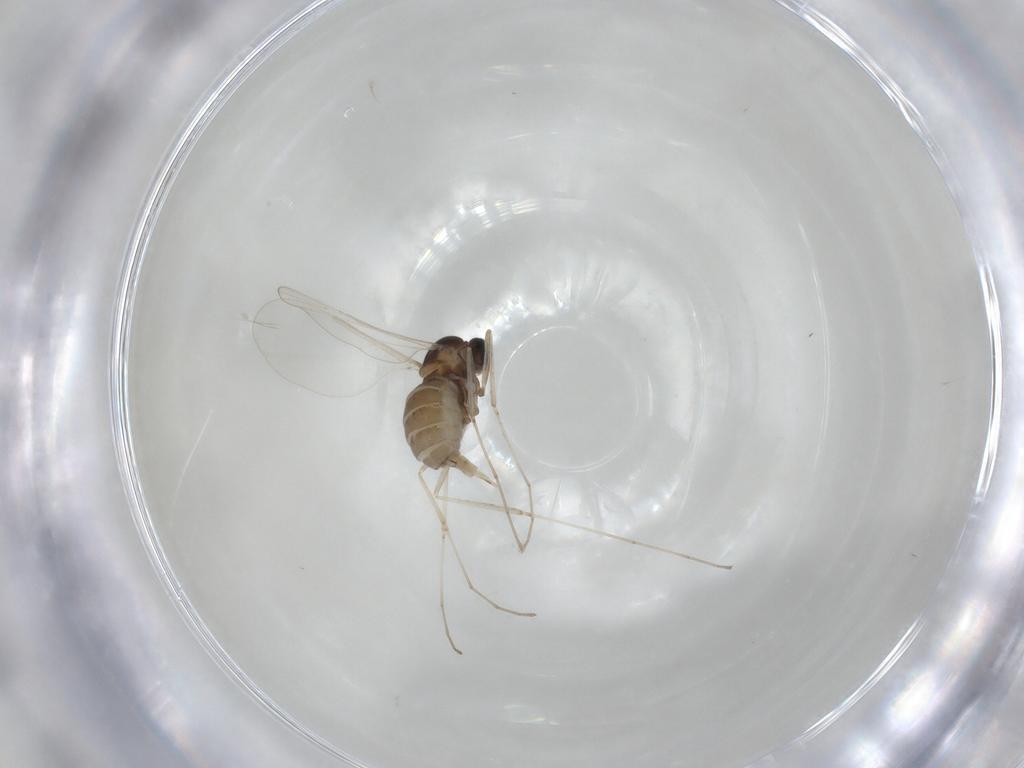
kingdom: Animalia
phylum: Arthropoda
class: Insecta
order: Diptera
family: Cecidomyiidae
